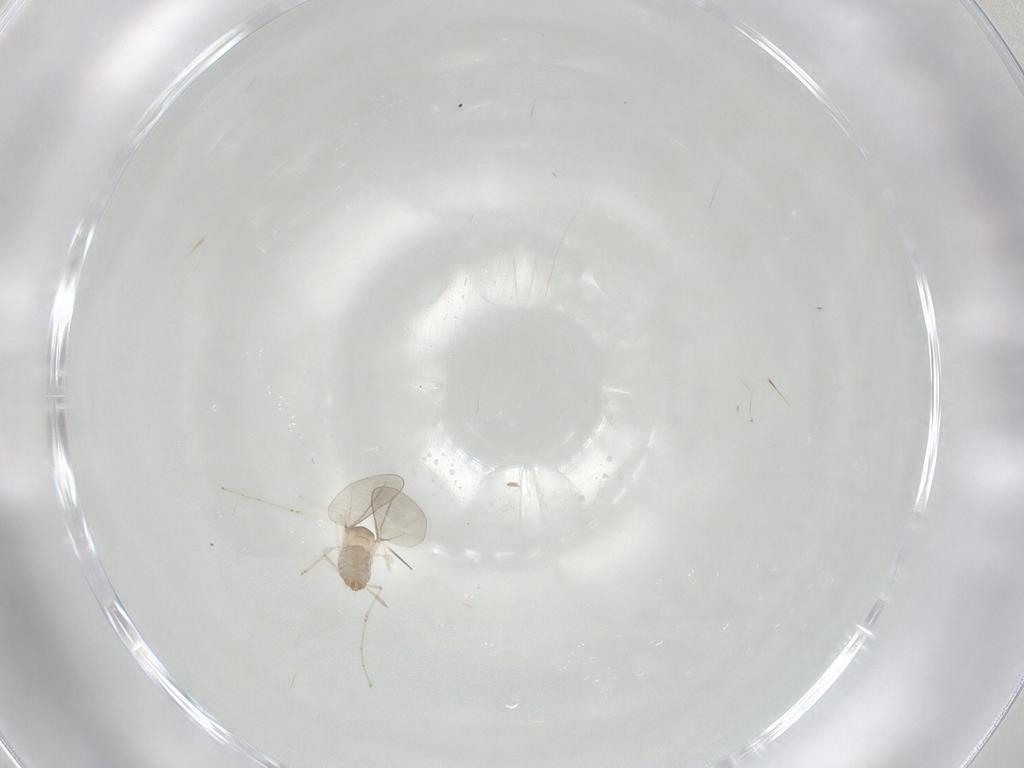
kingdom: Animalia
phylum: Arthropoda
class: Insecta
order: Diptera
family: Cecidomyiidae
